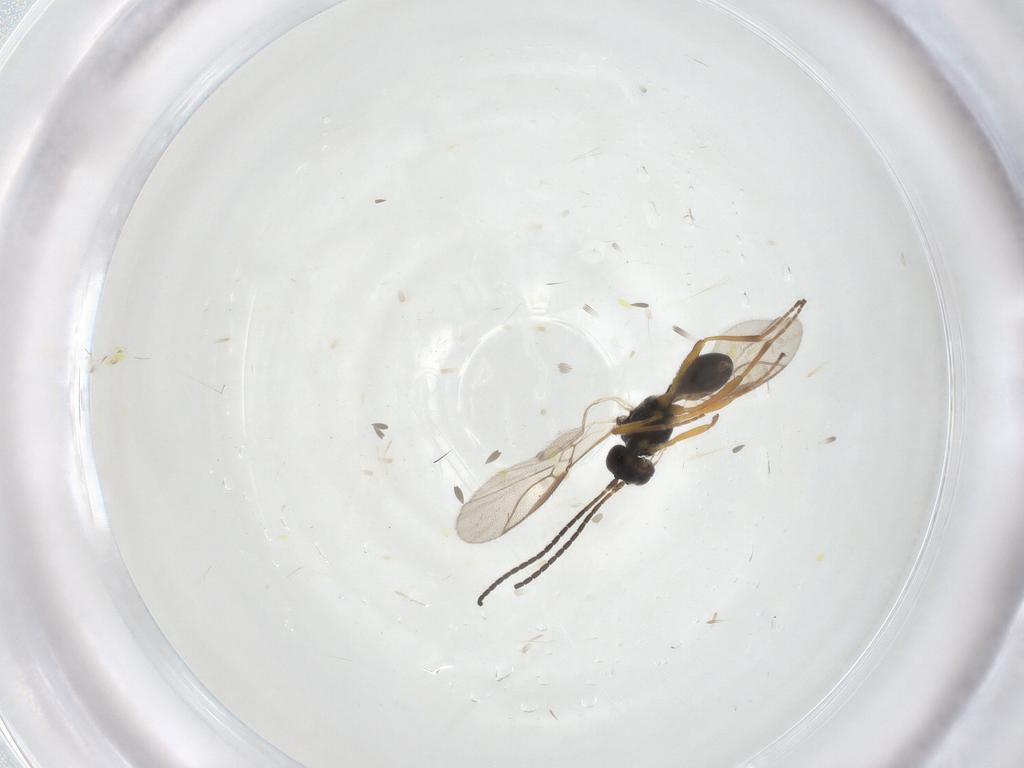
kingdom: Animalia
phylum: Arthropoda
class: Insecta
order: Hymenoptera
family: Braconidae
